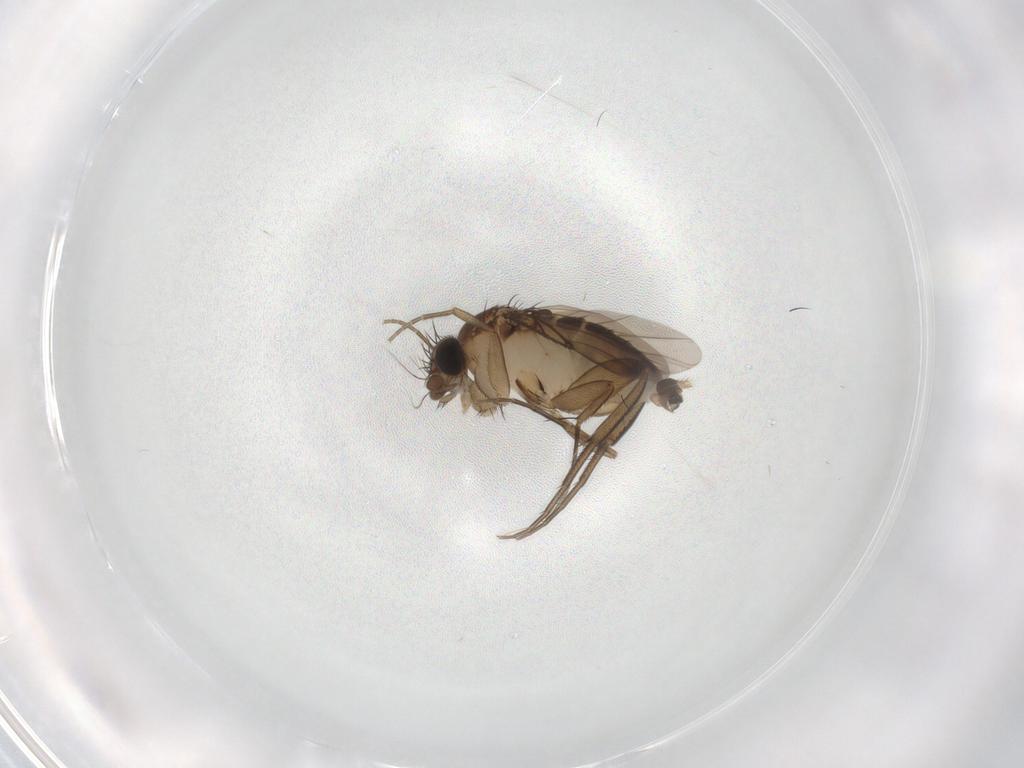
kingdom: Animalia
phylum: Arthropoda
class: Insecta
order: Diptera
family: Phoridae
